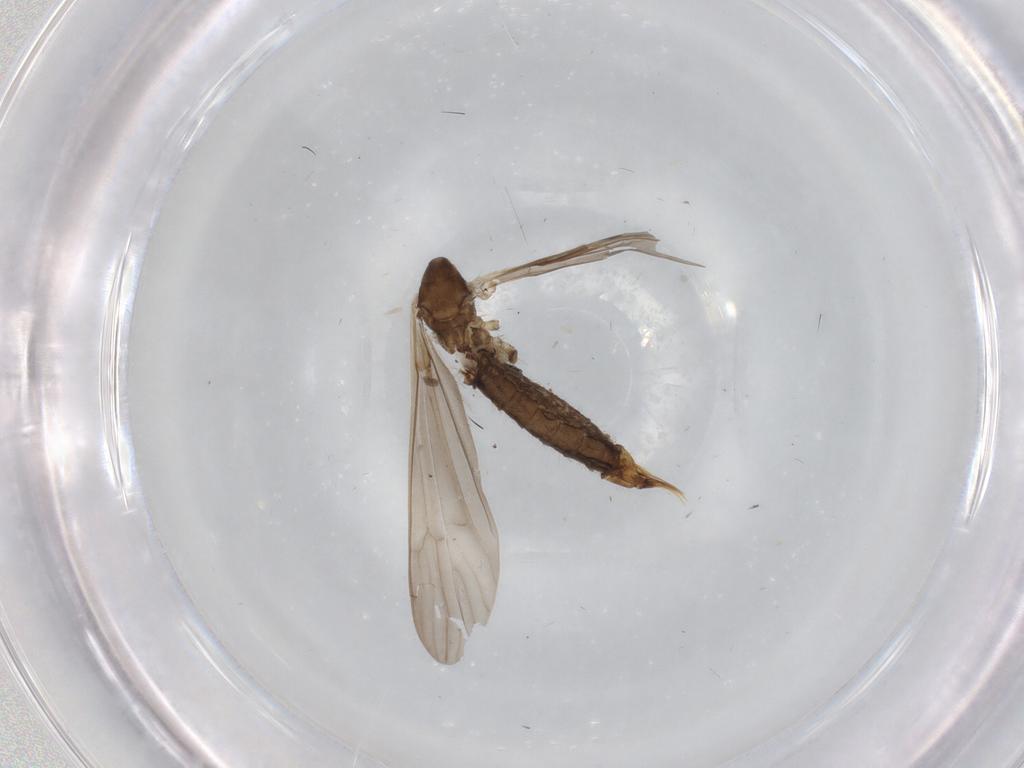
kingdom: Animalia
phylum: Arthropoda
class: Insecta
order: Diptera
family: Limoniidae
